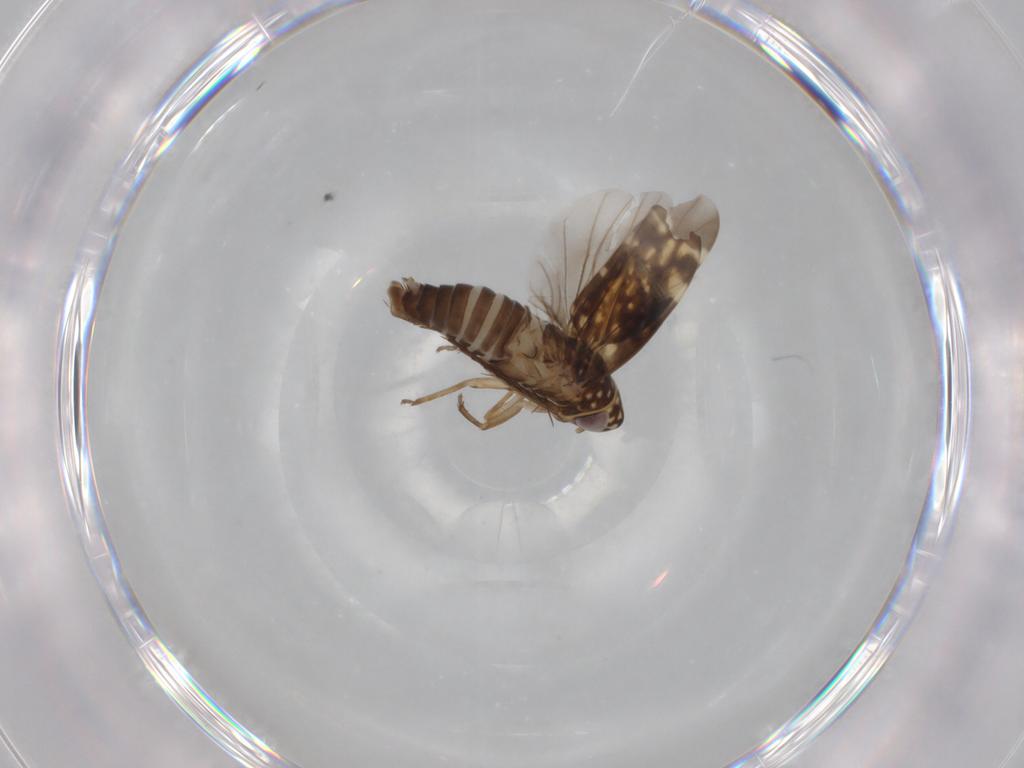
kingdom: Animalia
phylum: Arthropoda
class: Insecta
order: Hemiptera
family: Cicadellidae
